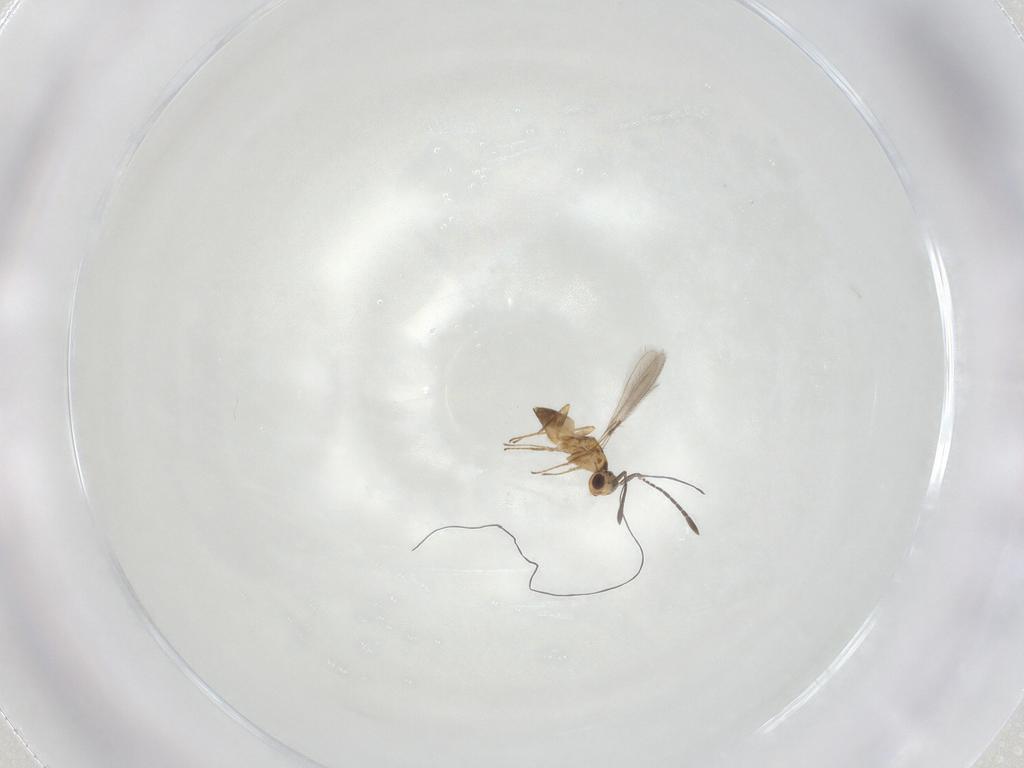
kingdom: Animalia
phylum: Arthropoda
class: Insecta
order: Hymenoptera
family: Mymaridae
